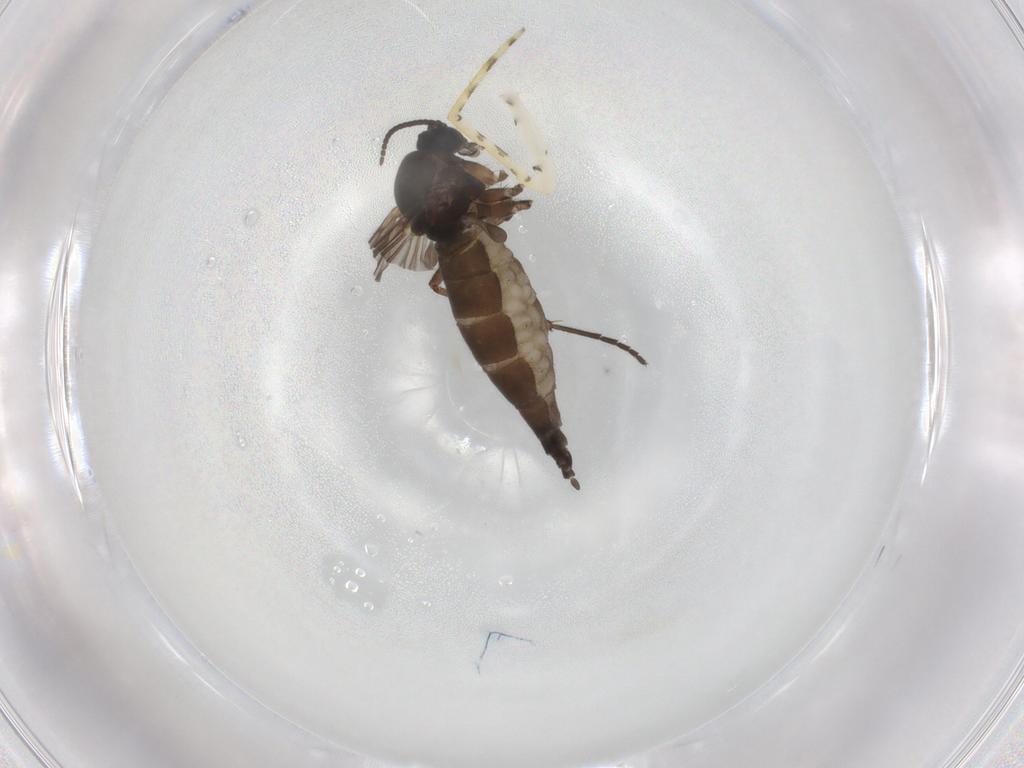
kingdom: Animalia
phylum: Arthropoda
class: Insecta
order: Diptera
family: Sciaridae
